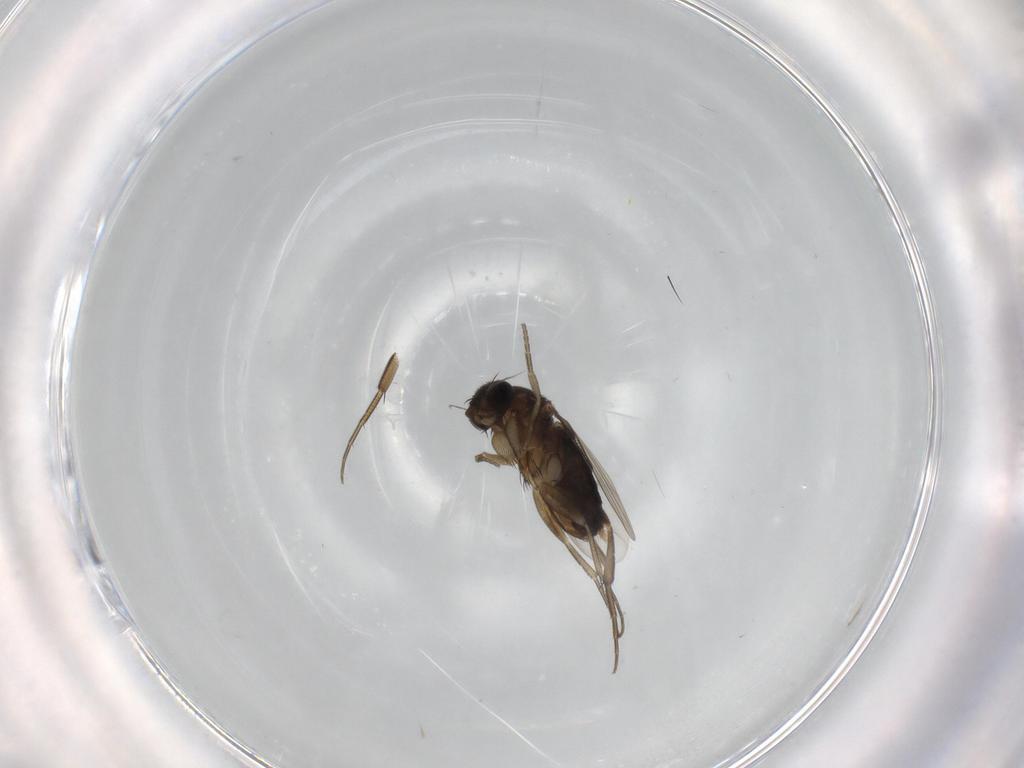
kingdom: Animalia
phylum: Arthropoda
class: Insecta
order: Diptera
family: Phoridae
